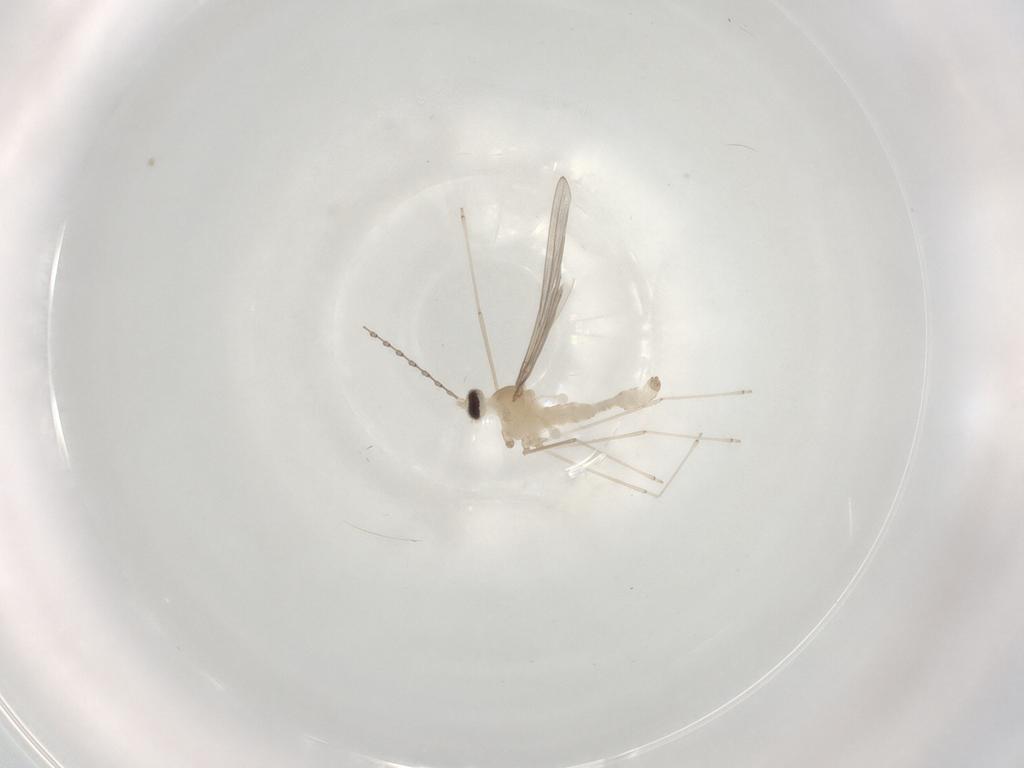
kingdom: Animalia
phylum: Arthropoda
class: Insecta
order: Diptera
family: Cecidomyiidae
